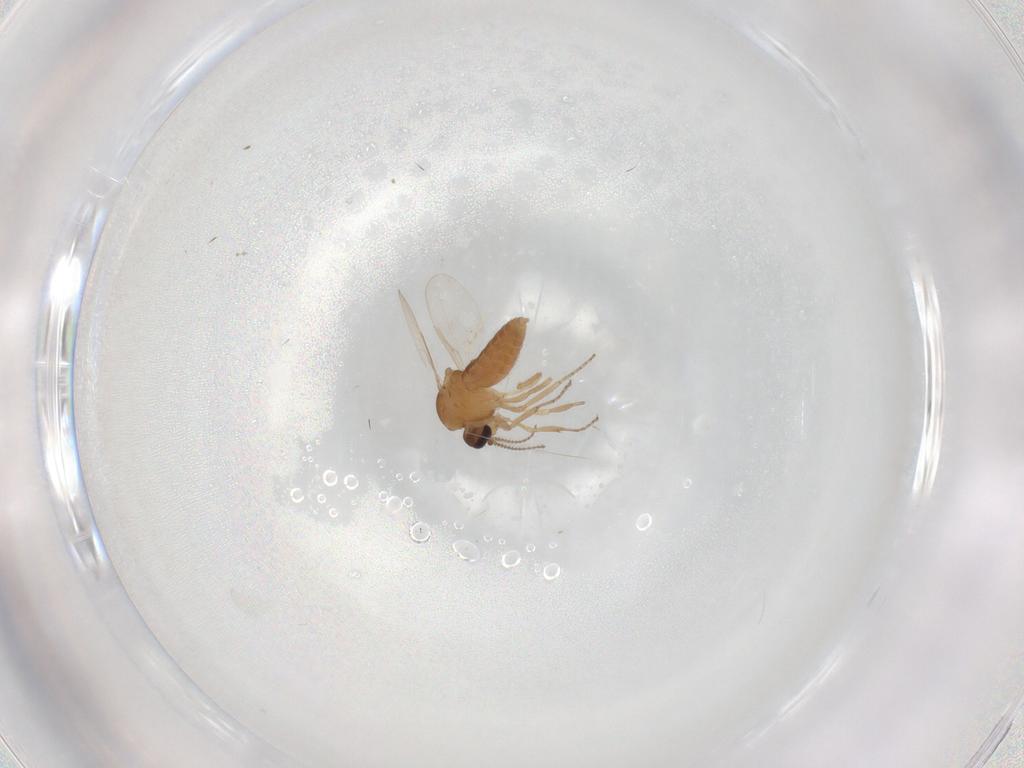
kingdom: Animalia
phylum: Arthropoda
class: Insecta
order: Diptera
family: Ceratopogonidae
